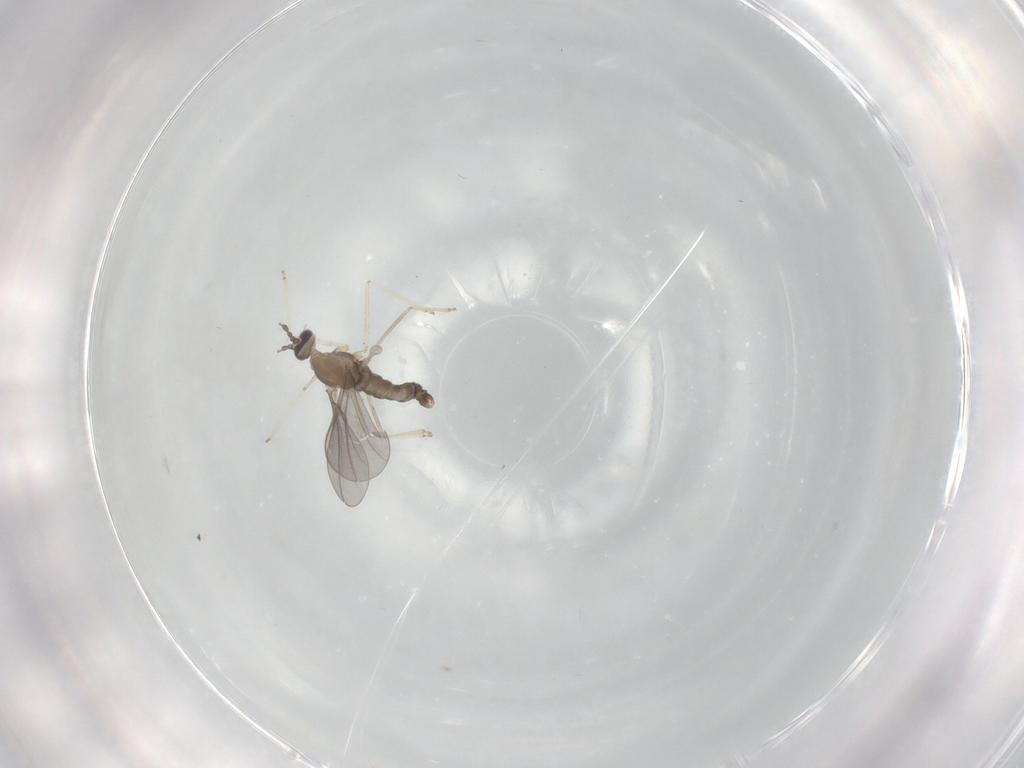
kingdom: Animalia
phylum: Arthropoda
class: Insecta
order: Diptera
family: Cecidomyiidae
